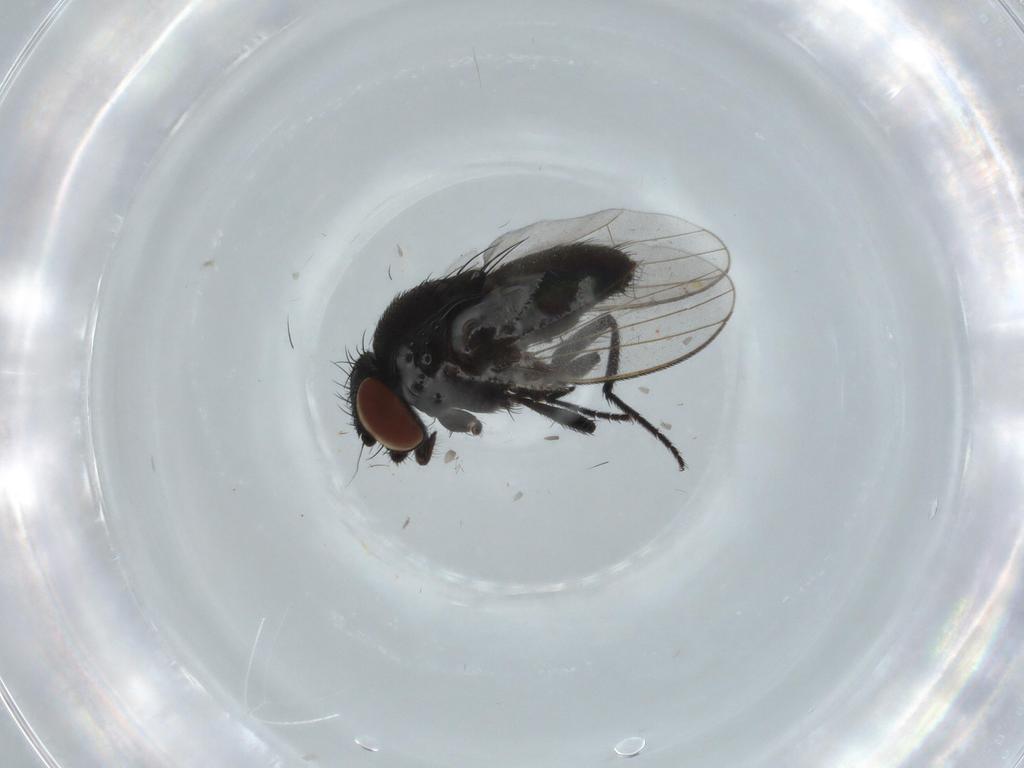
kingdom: Animalia
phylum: Arthropoda
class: Insecta
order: Diptera
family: Milichiidae
